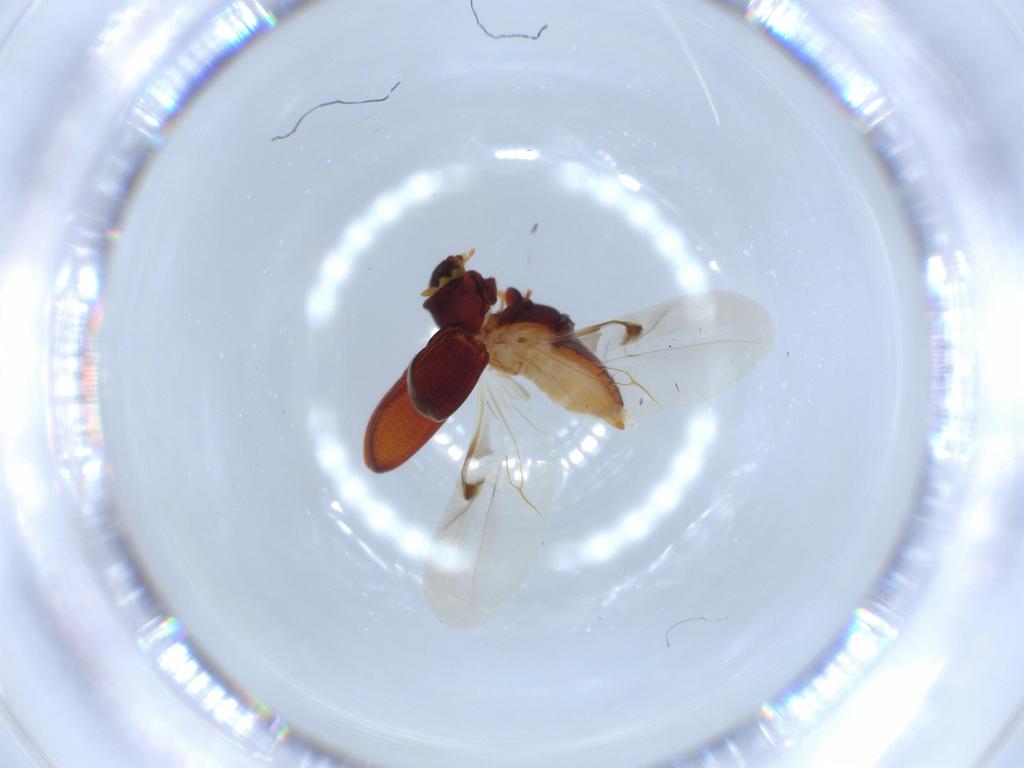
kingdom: Animalia
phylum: Arthropoda
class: Insecta
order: Coleoptera
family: Anobiidae
